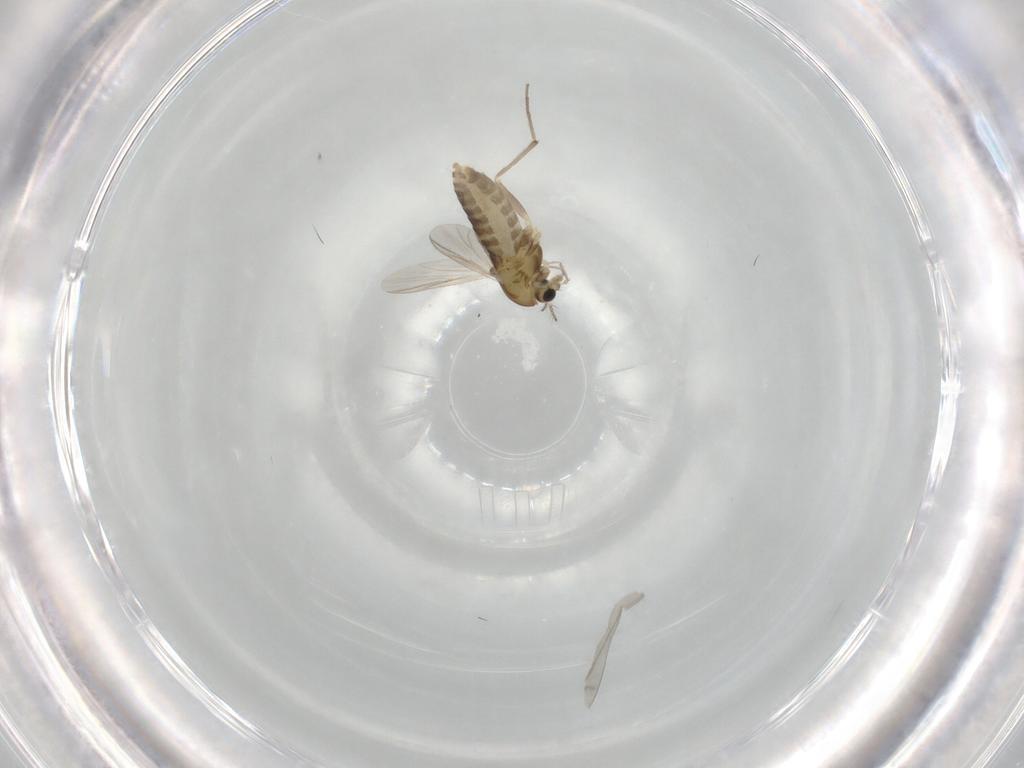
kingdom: Animalia
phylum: Arthropoda
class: Insecta
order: Diptera
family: Chironomidae
